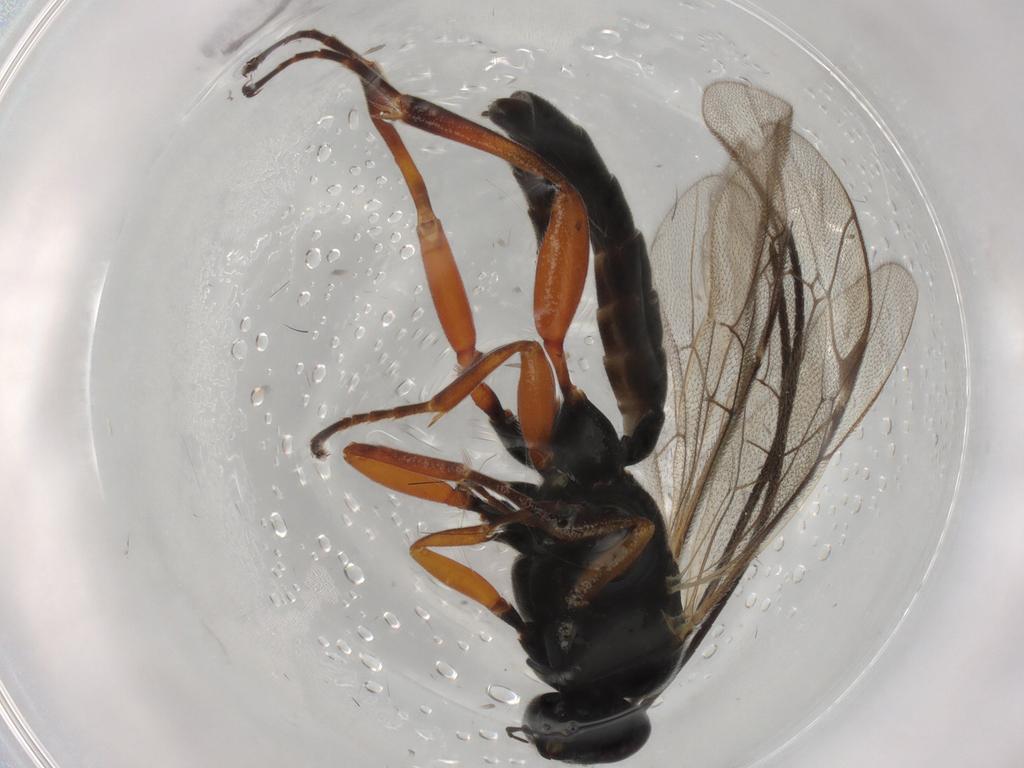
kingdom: Animalia
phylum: Arthropoda
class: Insecta
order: Hymenoptera
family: Ichneumonidae
